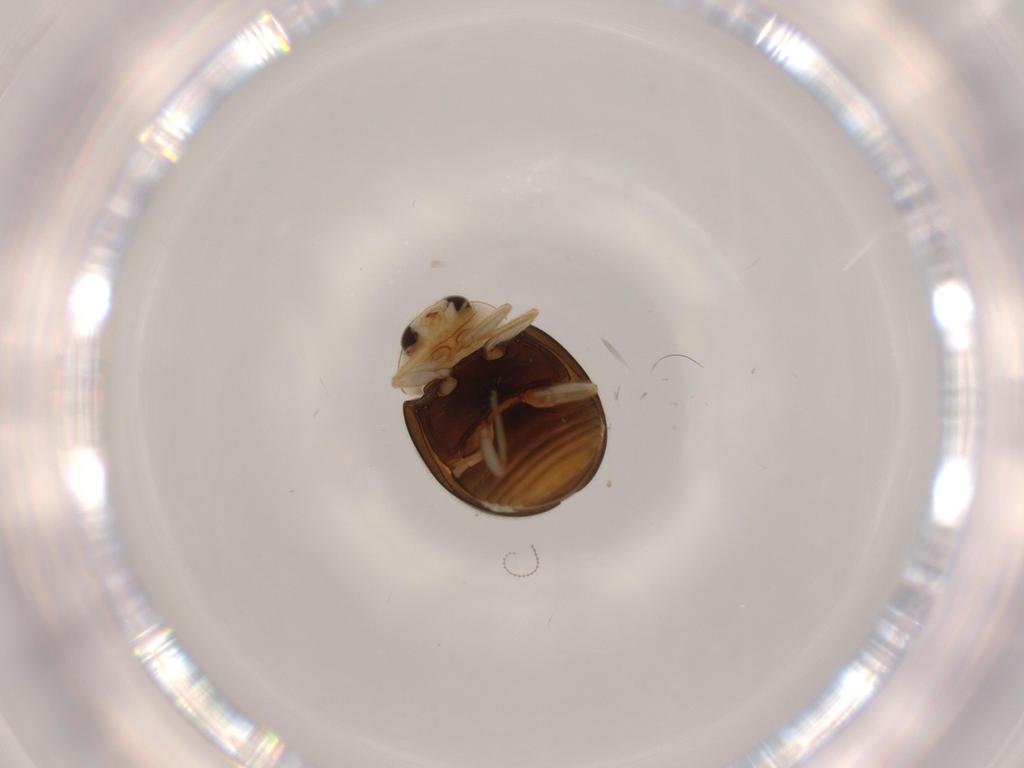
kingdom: Animalia
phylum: Arthropoda
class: Insecta
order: Coleoptera
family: Coccinellidae
